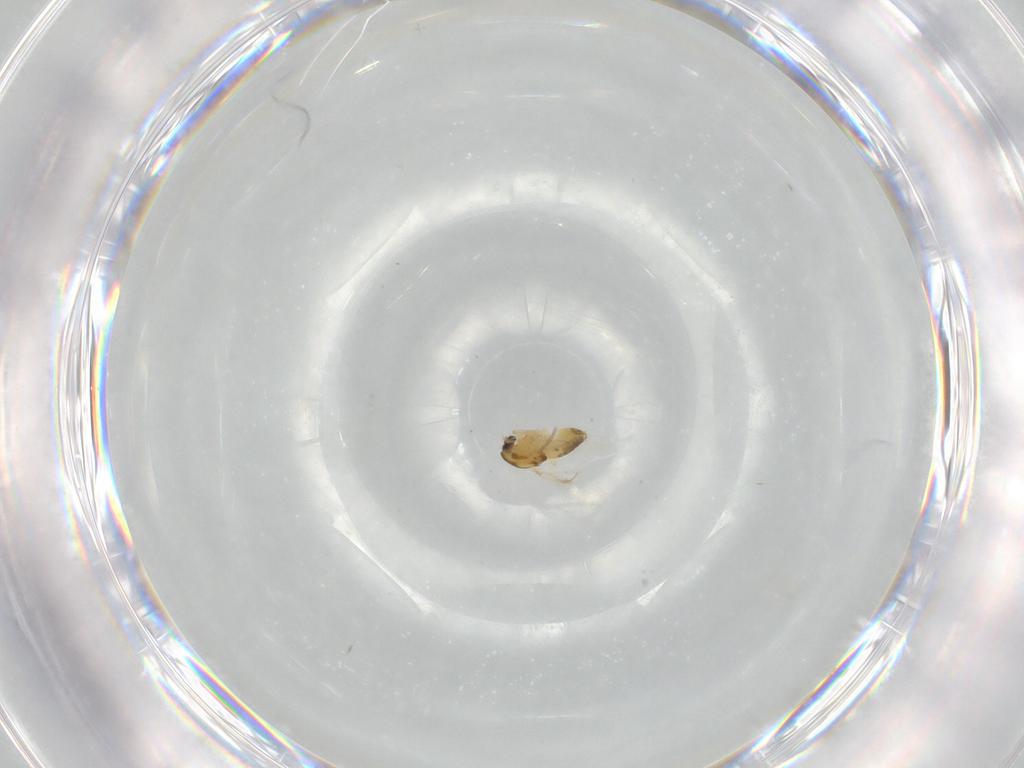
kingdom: Animalia
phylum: Arthropoda
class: Insecta
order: Diptera
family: Chironomidae
